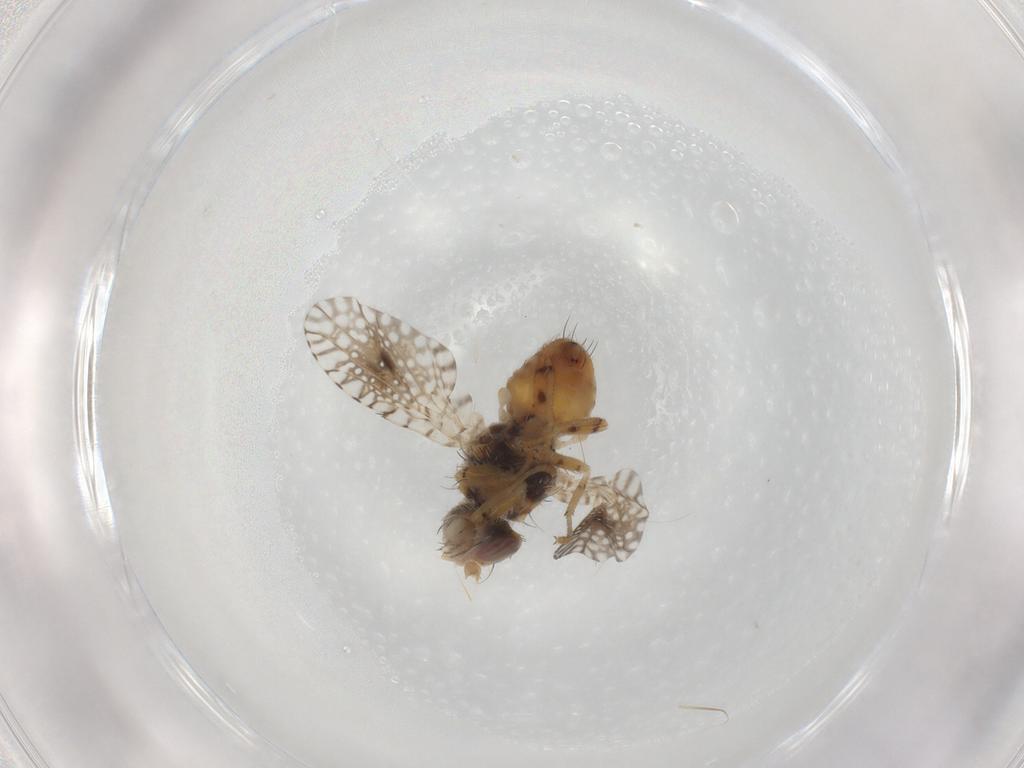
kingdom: Animalia
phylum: Arthropoda
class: Insecta
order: Diptera
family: Tephritidae
